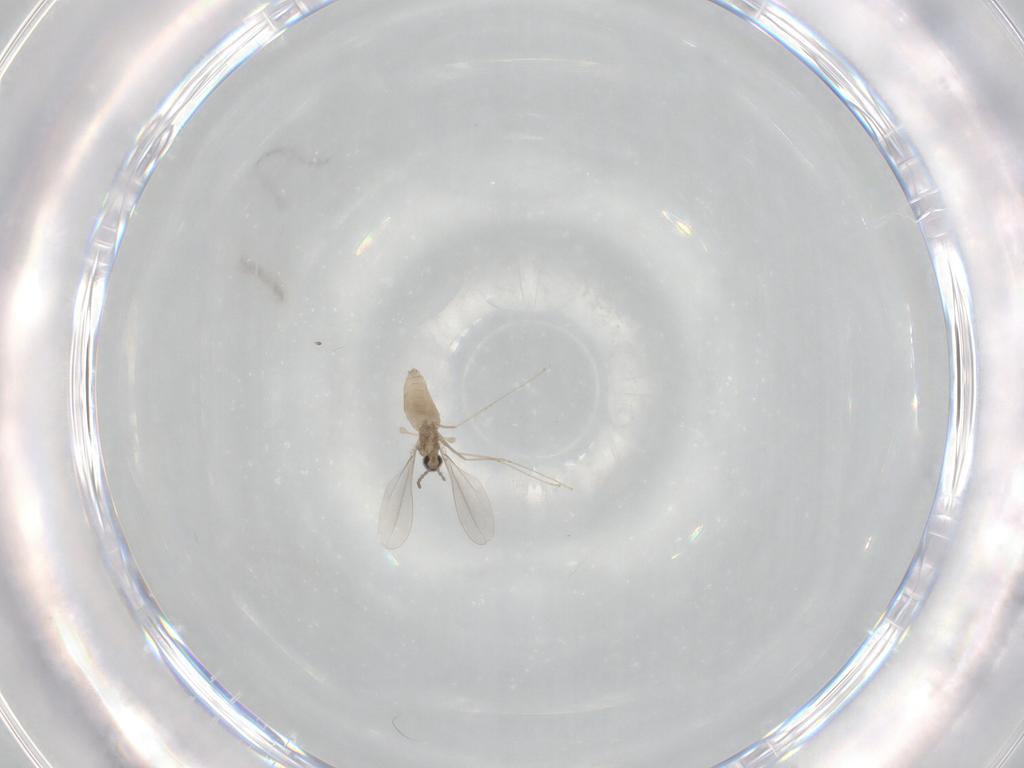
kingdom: Animalia
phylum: Arthropoda
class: Insecta
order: Diptera
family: Cecidomyiidae
